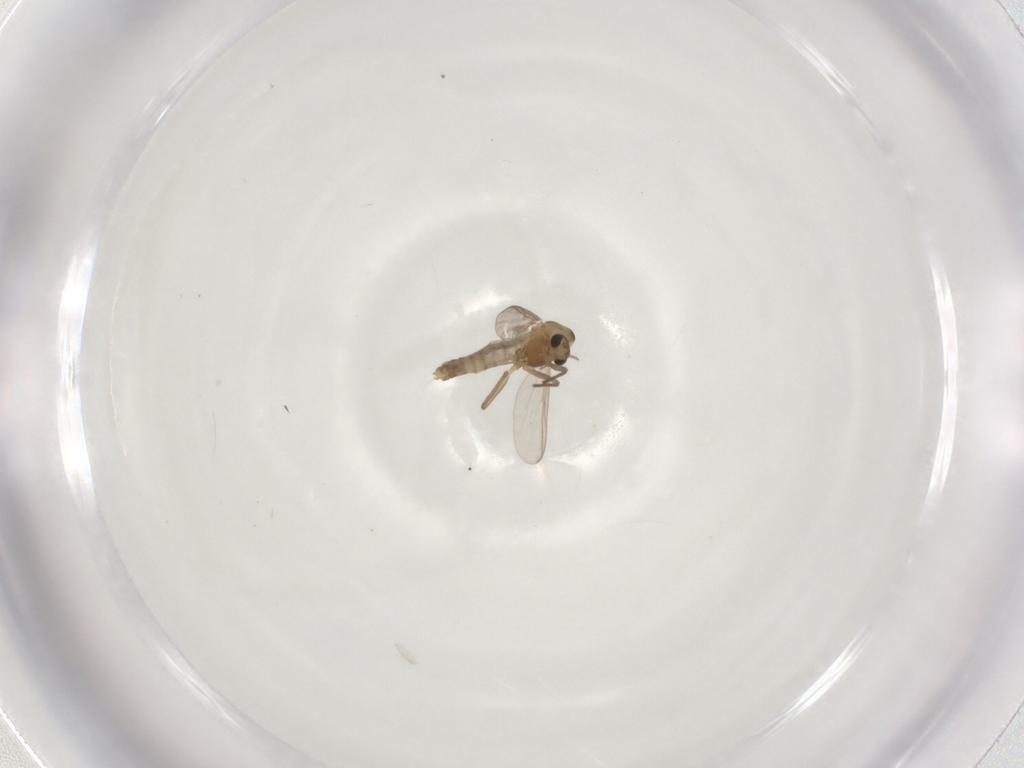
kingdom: Animalia
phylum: Arthropoda
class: Insecta
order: Diptera
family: Chironomidae
